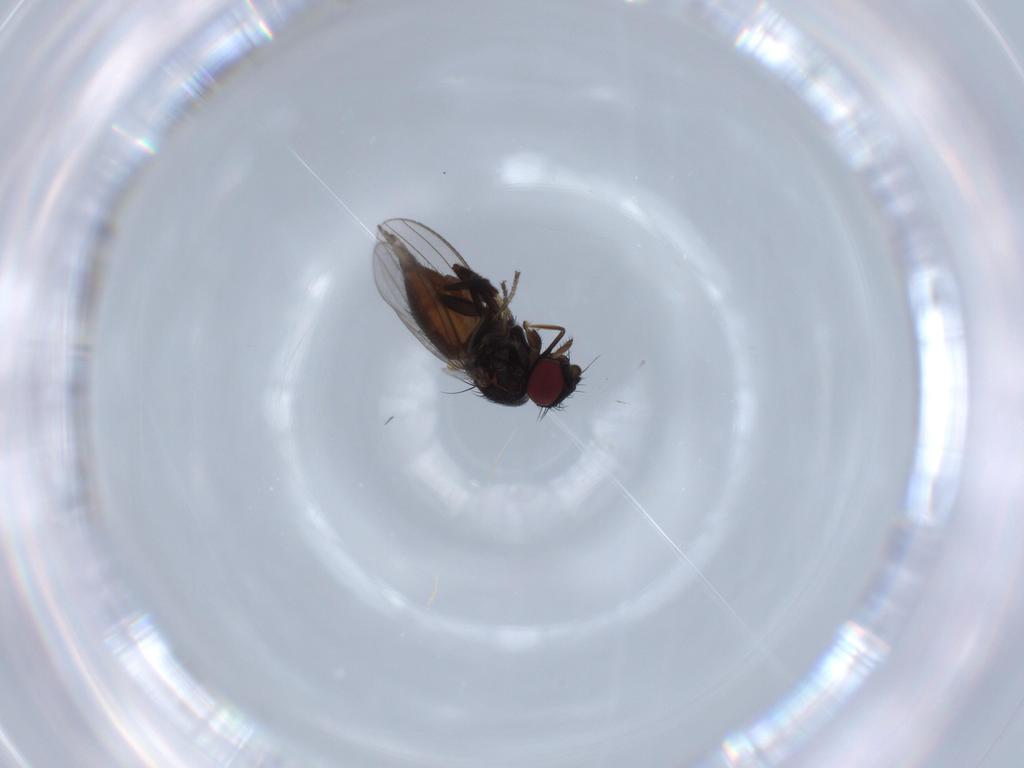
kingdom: Animalia
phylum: Arthropoda
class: Insecta
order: Diptera
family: Milichiidae
